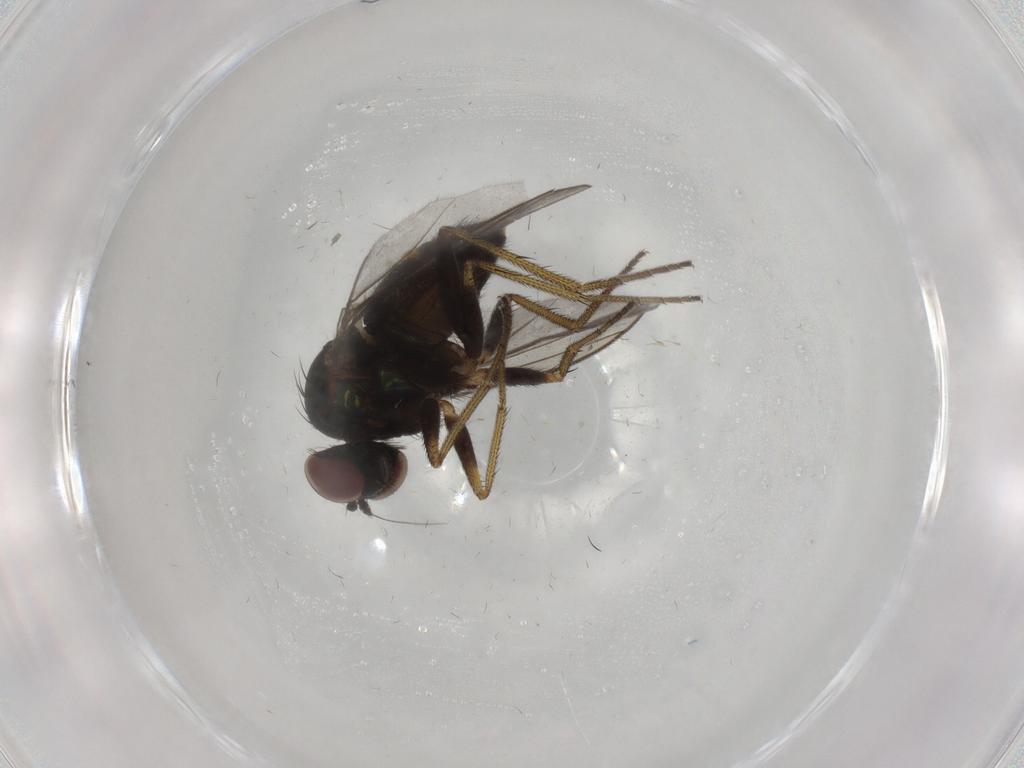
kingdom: Animalia
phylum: Arthropoda
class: Insecta
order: Diptera
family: Dolichopodidae
